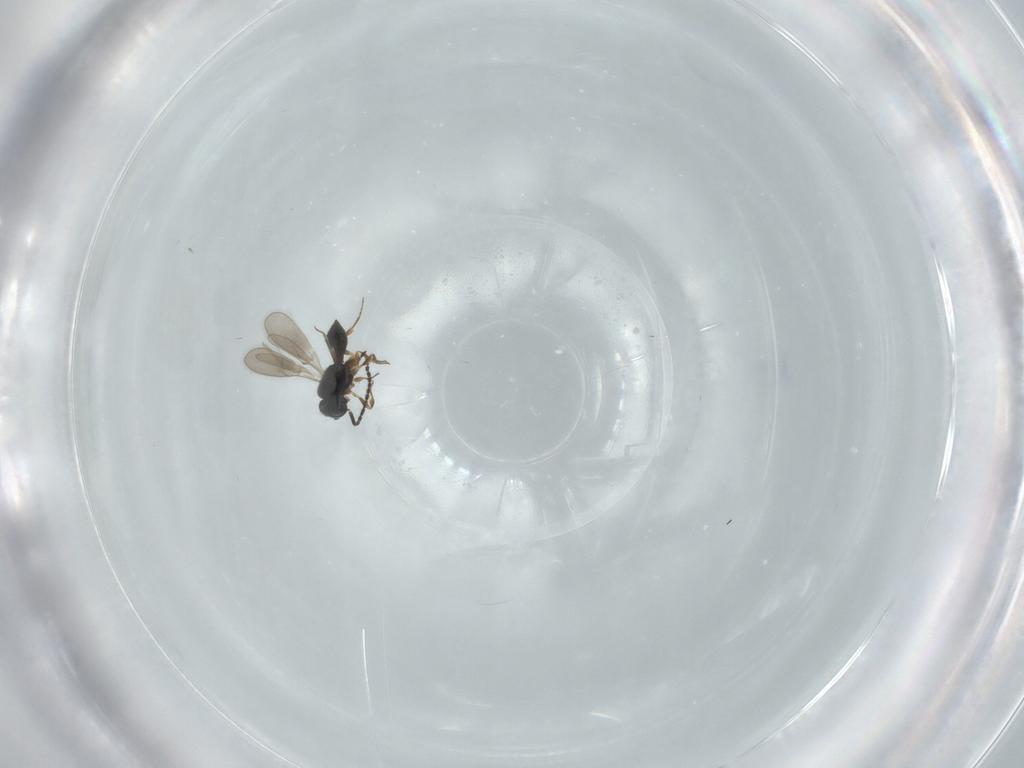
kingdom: Animalia
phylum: Arthropoda
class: Insecta
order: Hymenoptera
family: Scelionidae
